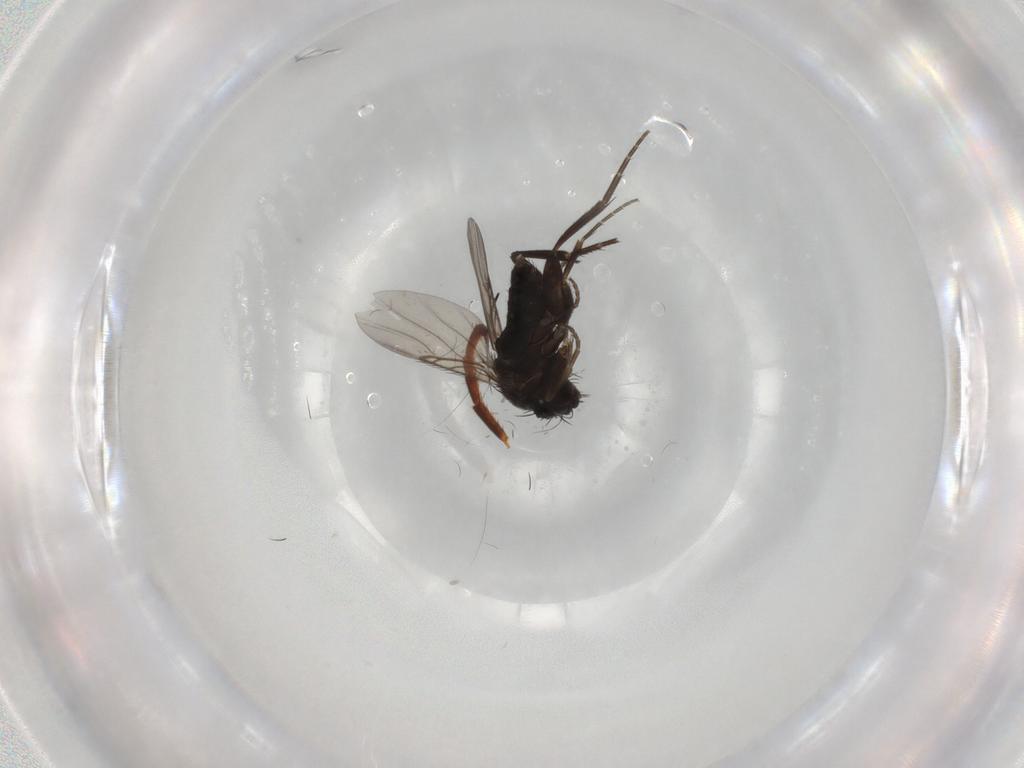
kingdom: Animalia
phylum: Arthropoda
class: Insecta
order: Diptera
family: Phoridae
